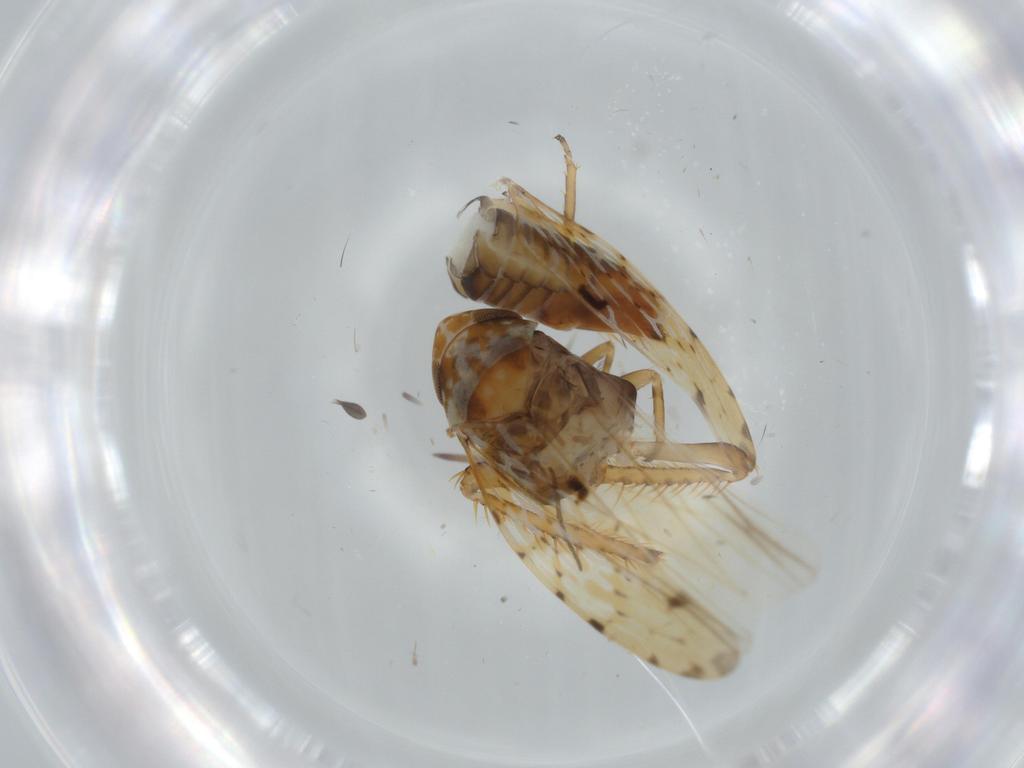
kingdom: Animalia
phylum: Arthropoda
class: Insecta
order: Hemiptera
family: Cicadellidae
